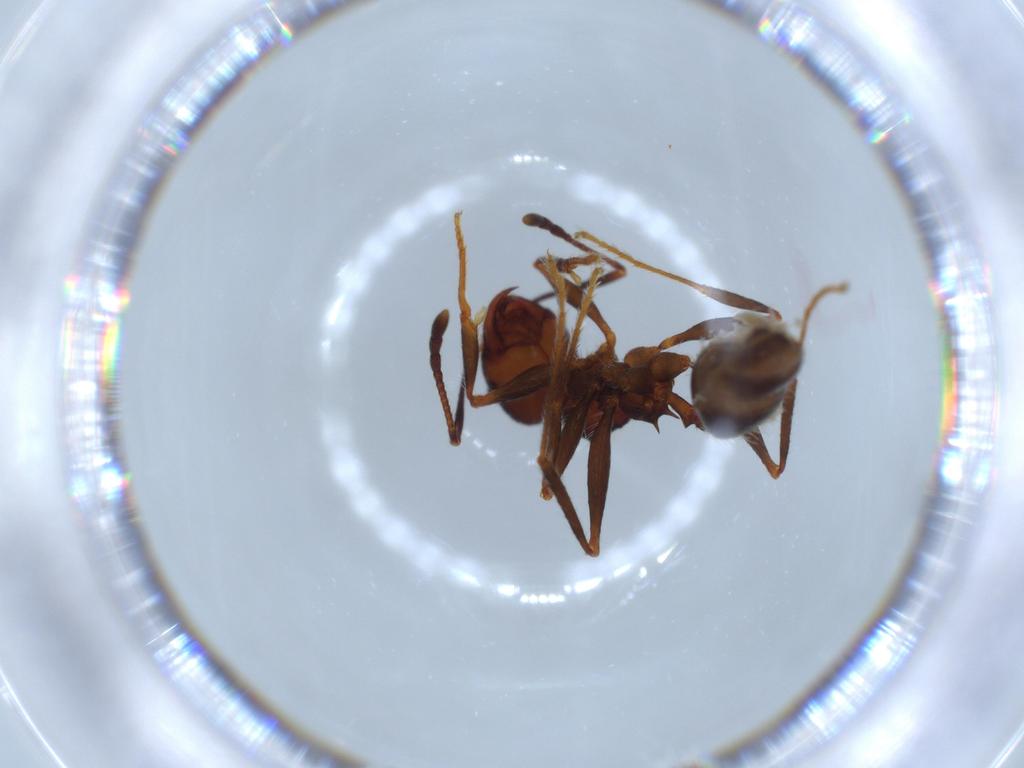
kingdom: Animalia
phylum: Arthropoda
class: Insecta
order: Hymenoptera
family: Formicidae
